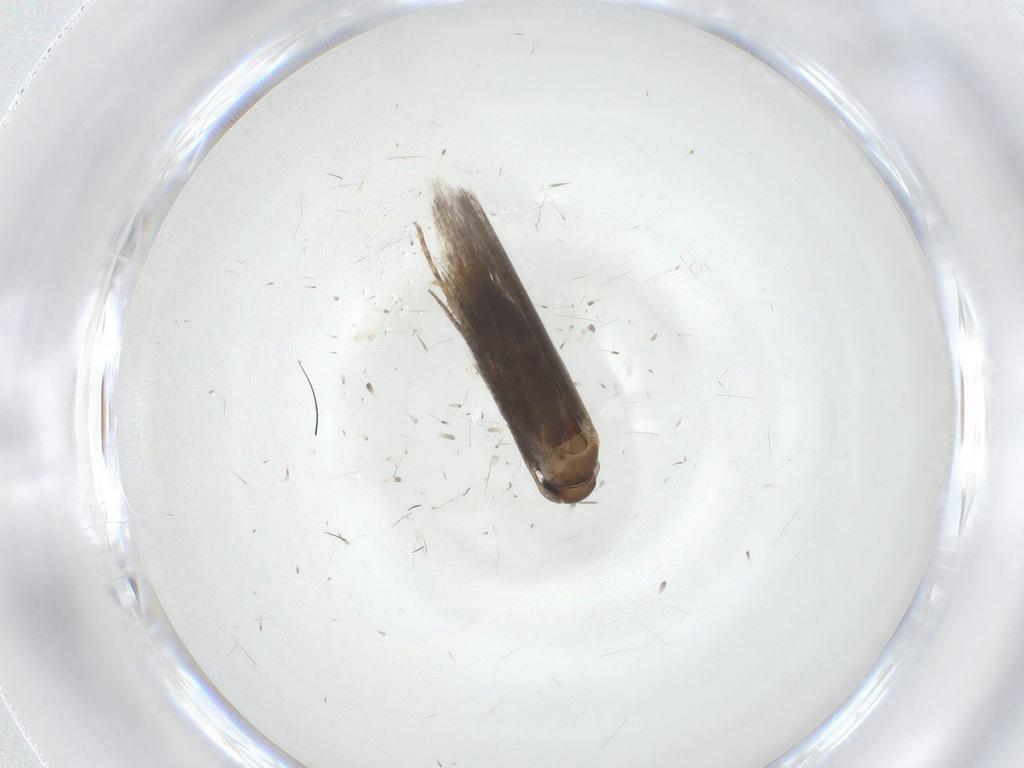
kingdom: Animalia
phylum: Arthropoda
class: Insecta
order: Lepidoptera
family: Elachistidae
